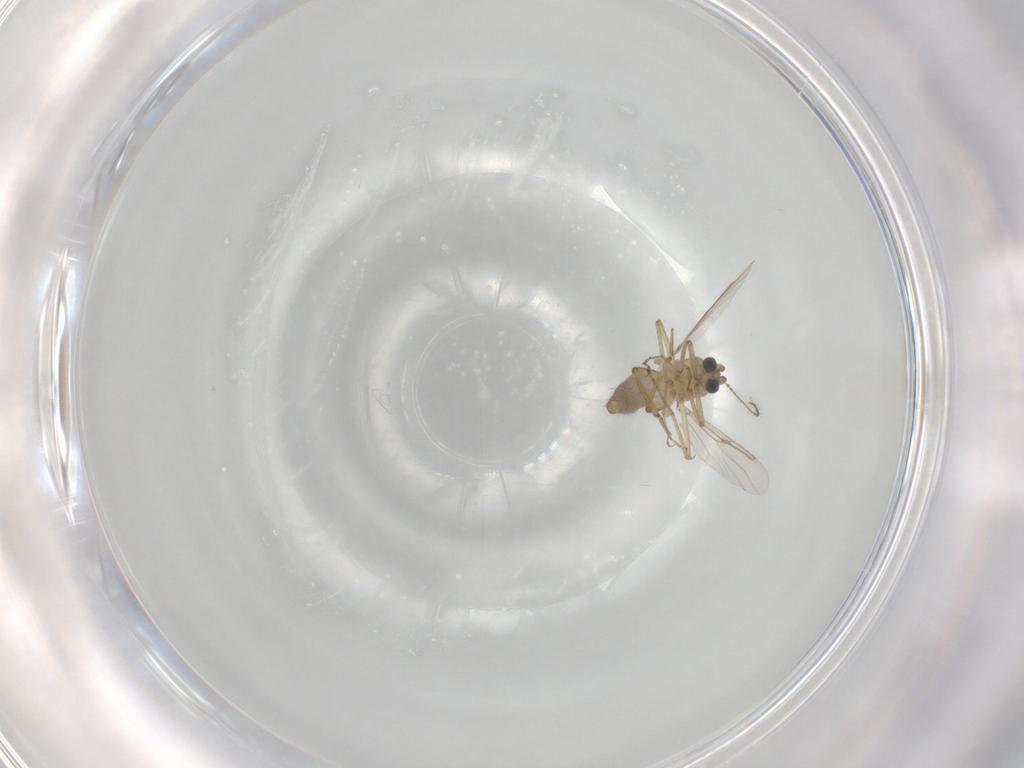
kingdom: Animalia
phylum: Arthropoda
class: Insecta
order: Diptera
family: Ceratopogonidae
